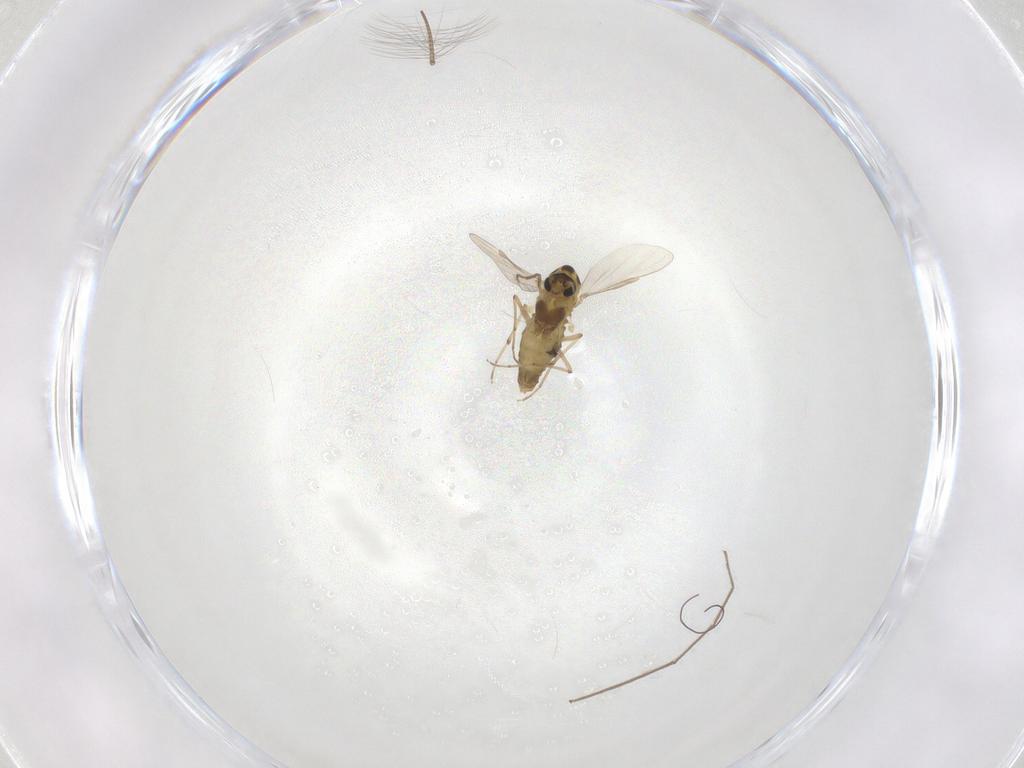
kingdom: Animalia
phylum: Arthropoda
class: Insecta
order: Diptera
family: Chironomidae
